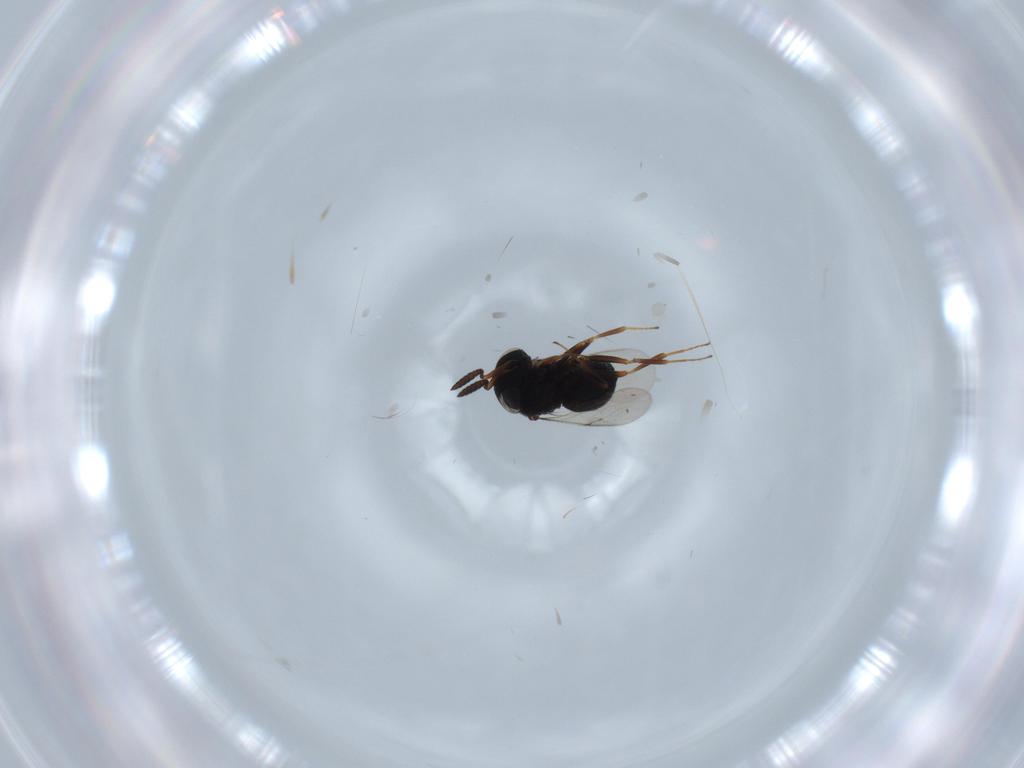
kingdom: Animalia
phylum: Arthropoda
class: Insecta
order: Hymenoptera
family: Scelionidae
